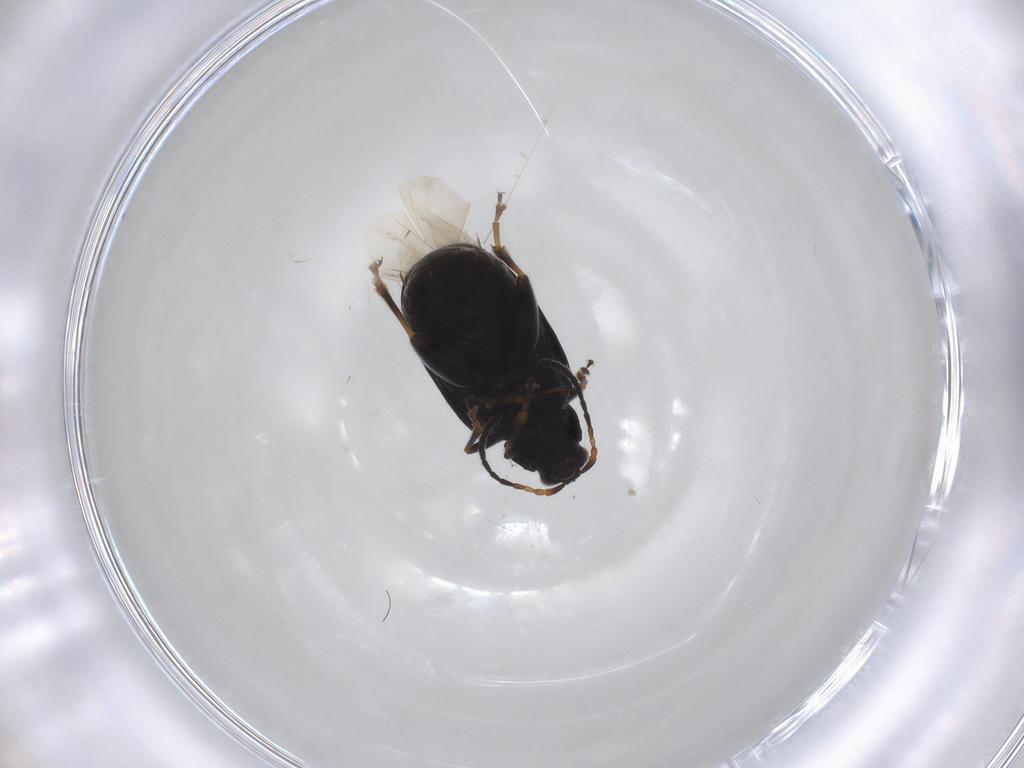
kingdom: Animalia
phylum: Arthropoda
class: Insecta
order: Coleoptera
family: Chrysomelidae
